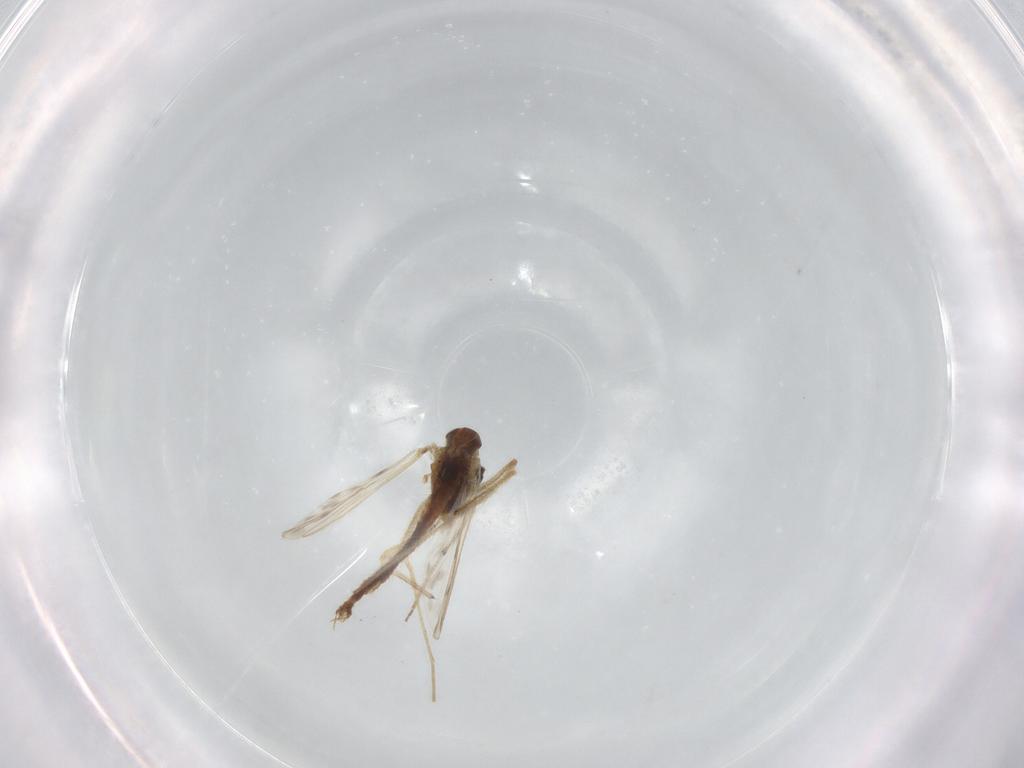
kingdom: Animalia
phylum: Arthropoda
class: Insecta
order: Diptera
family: Chironomidae
